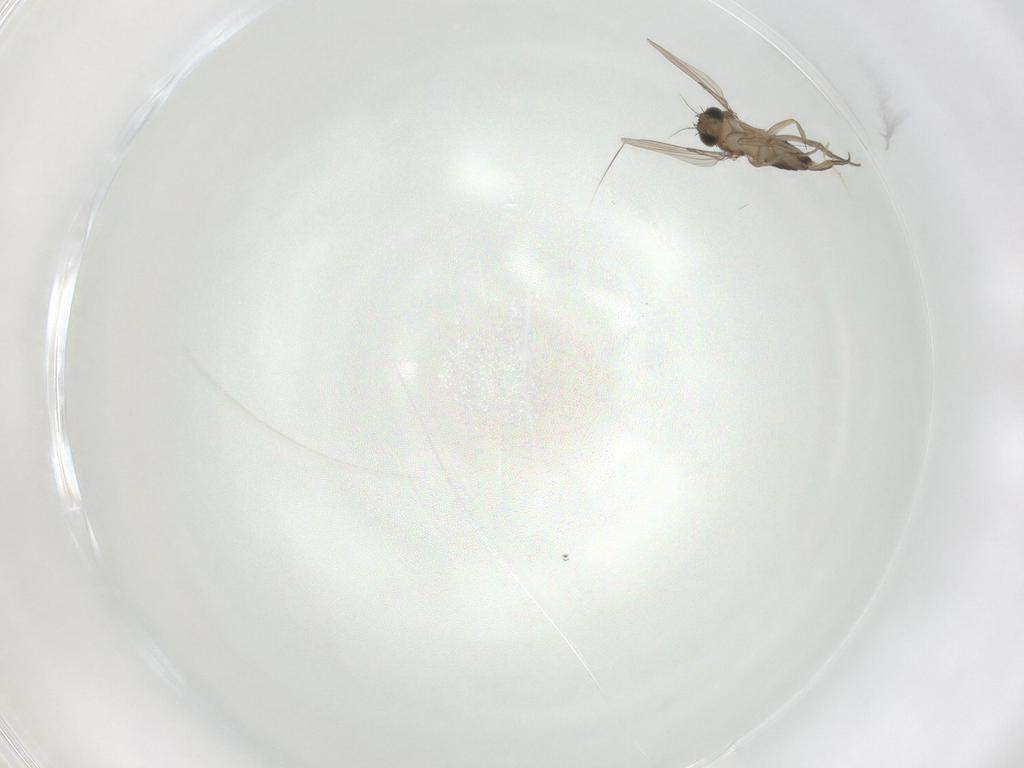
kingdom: Animalia
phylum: Arthropoda
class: Insecta
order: Diptera
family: Phoridae
